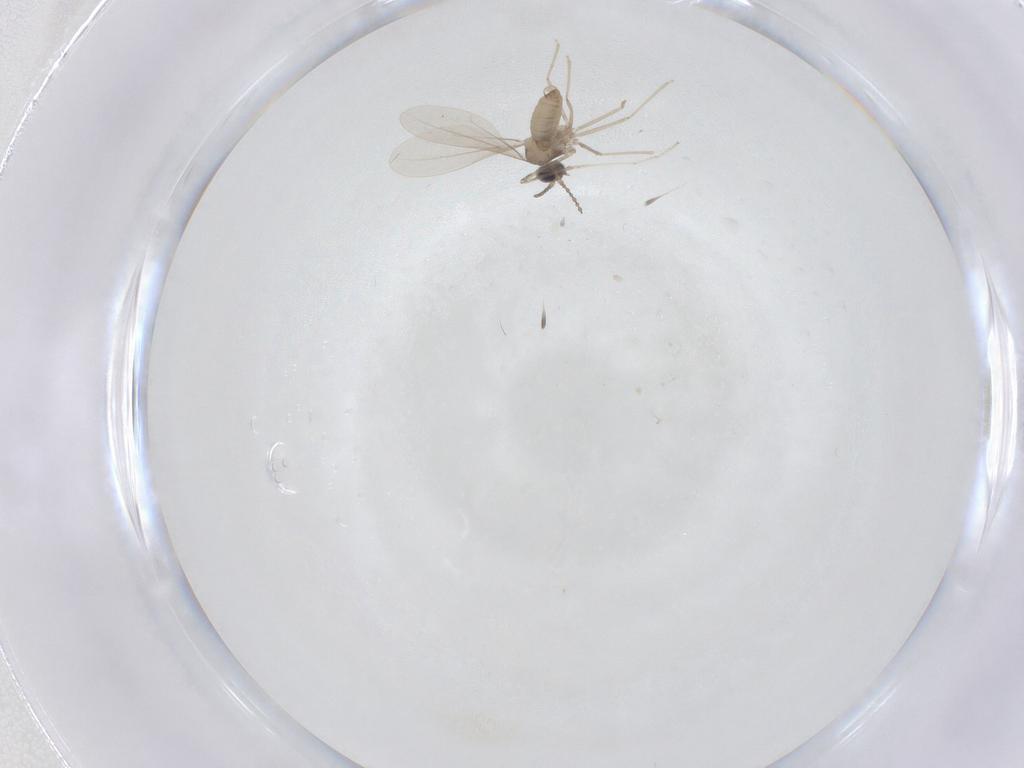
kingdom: Animalia
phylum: Arthropoda
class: Insecta
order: Diptera
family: Cecidomyiidae
